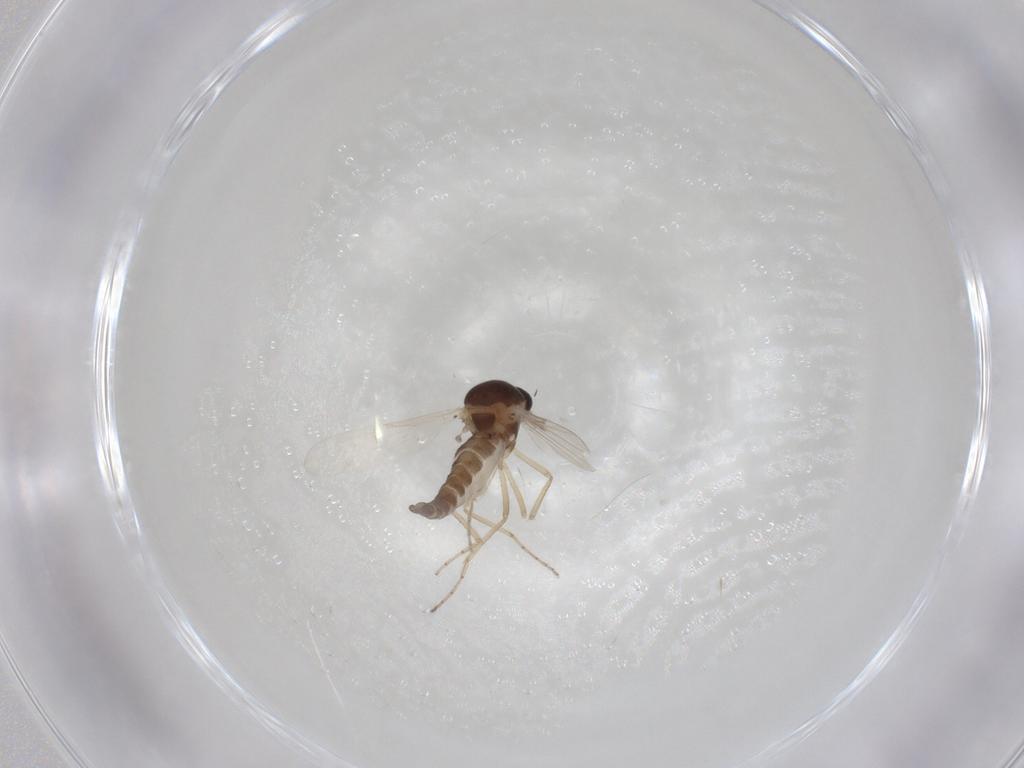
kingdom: Animalia
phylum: Arthropoda
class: Insecta
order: Diptera
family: Ceratopogonidae
